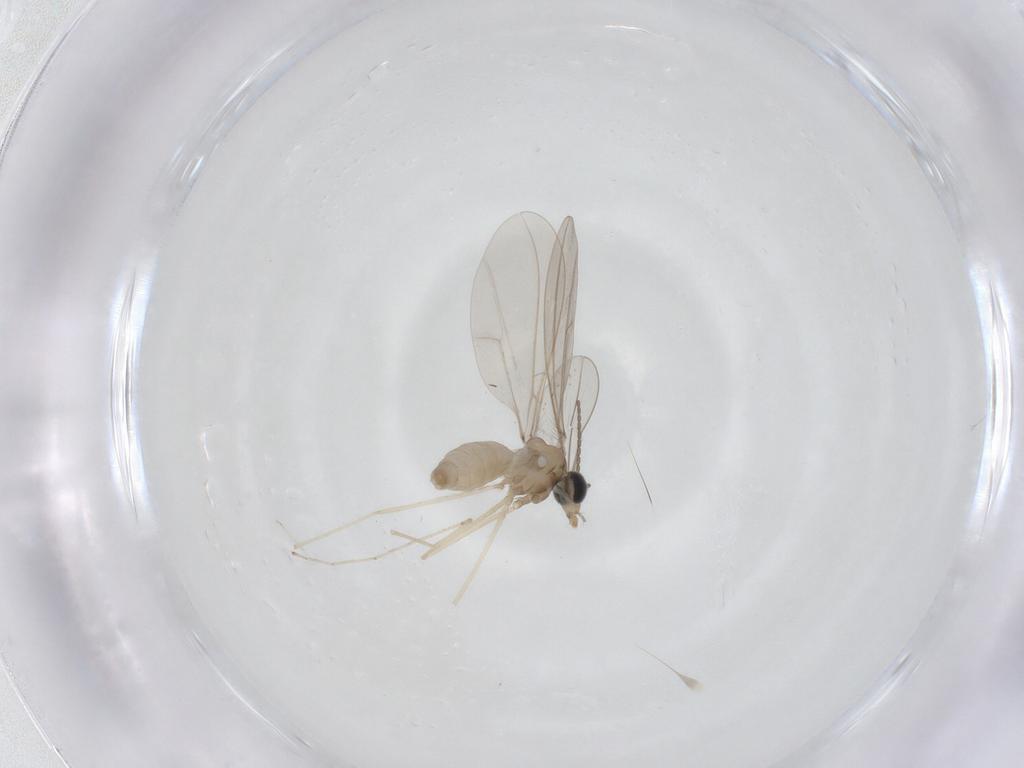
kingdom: Animalia
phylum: Arthropoda
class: Insecta
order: Diptera
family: Cecidomyiidae
